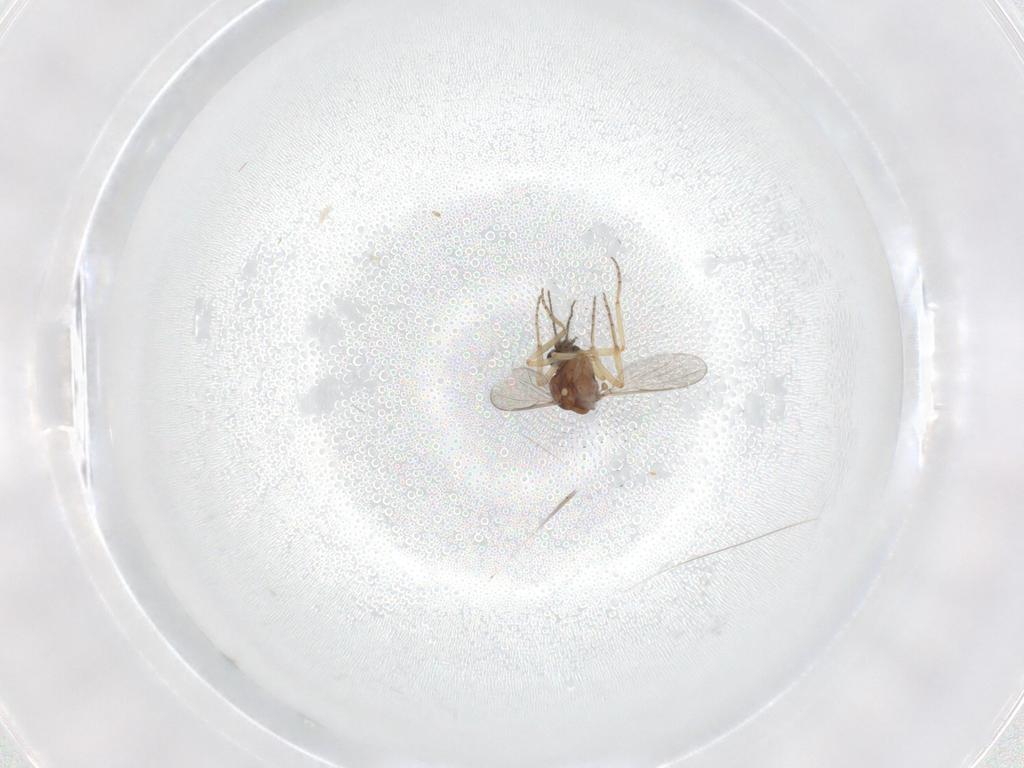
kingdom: Animalia
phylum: Arthropoda
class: Insecta
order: Diptera
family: Ceratopogonidae
